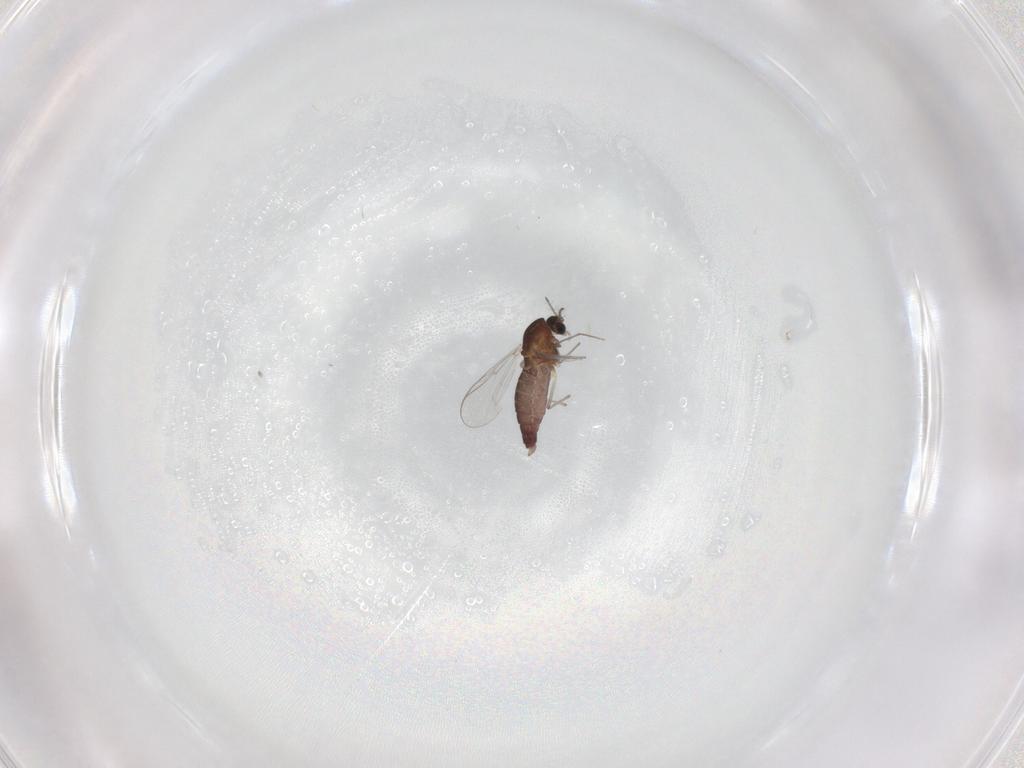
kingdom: Animalia
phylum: Arthropoda
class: Insecta
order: Diptera
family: Chironomidae
